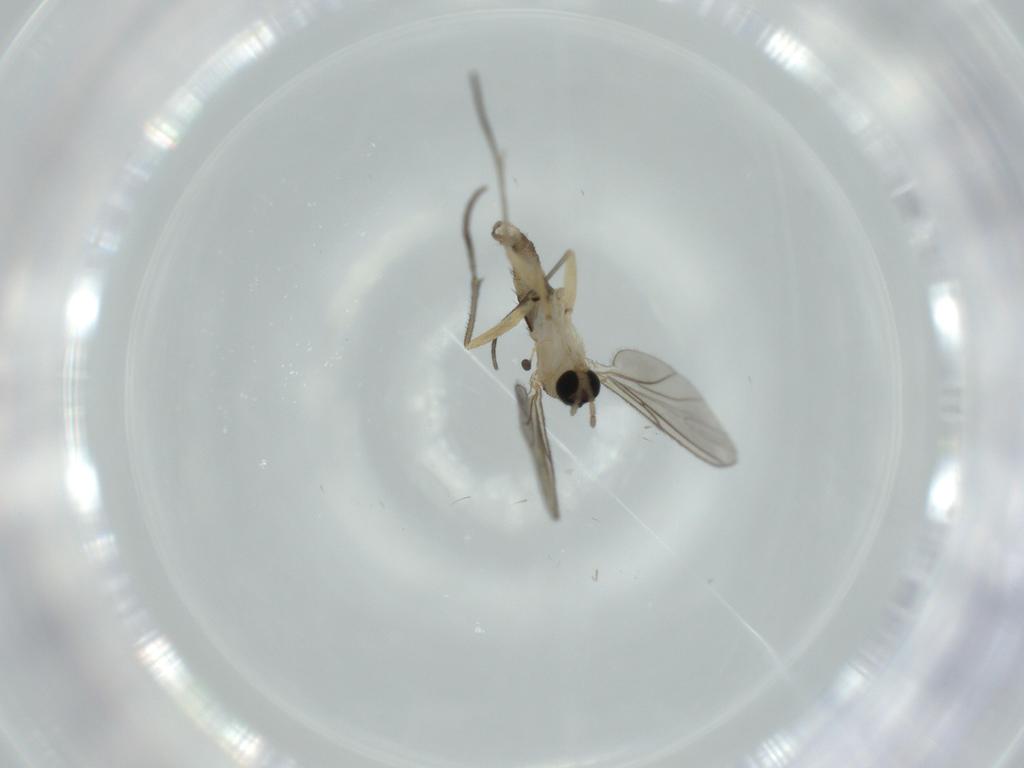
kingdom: Animalia
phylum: Arthropoda
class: Insecta
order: Diptera
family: Sciaridae
